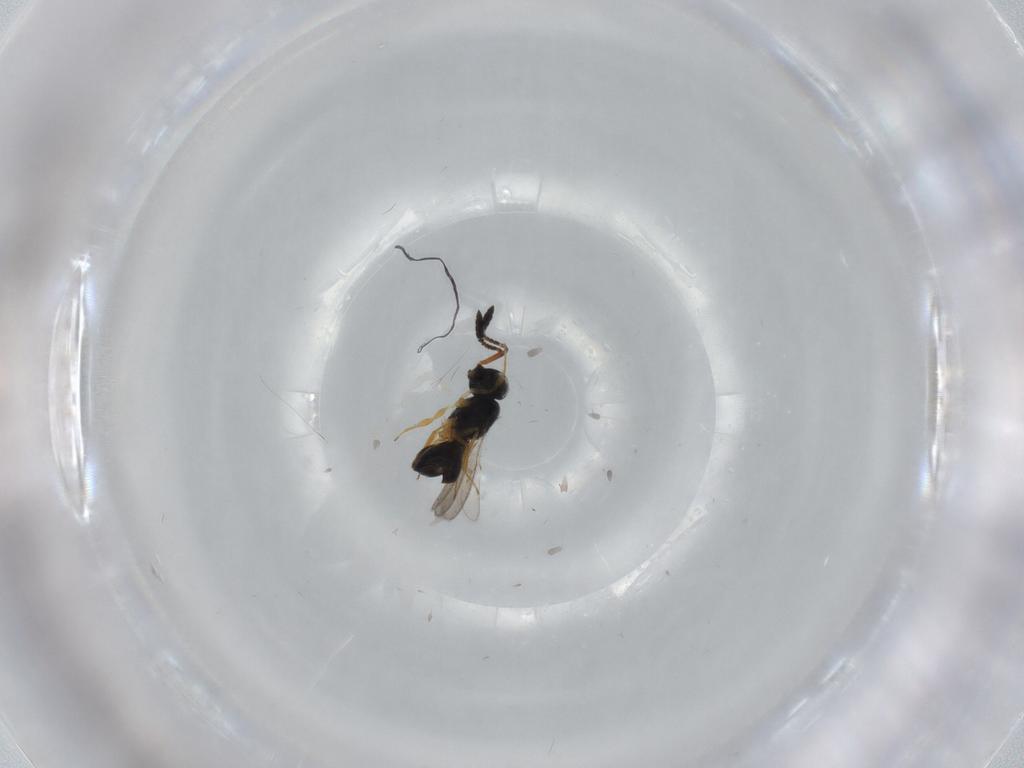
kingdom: Animalia
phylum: Arthropoda
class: Insecta
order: Hymenoptera
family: Scelionidae
